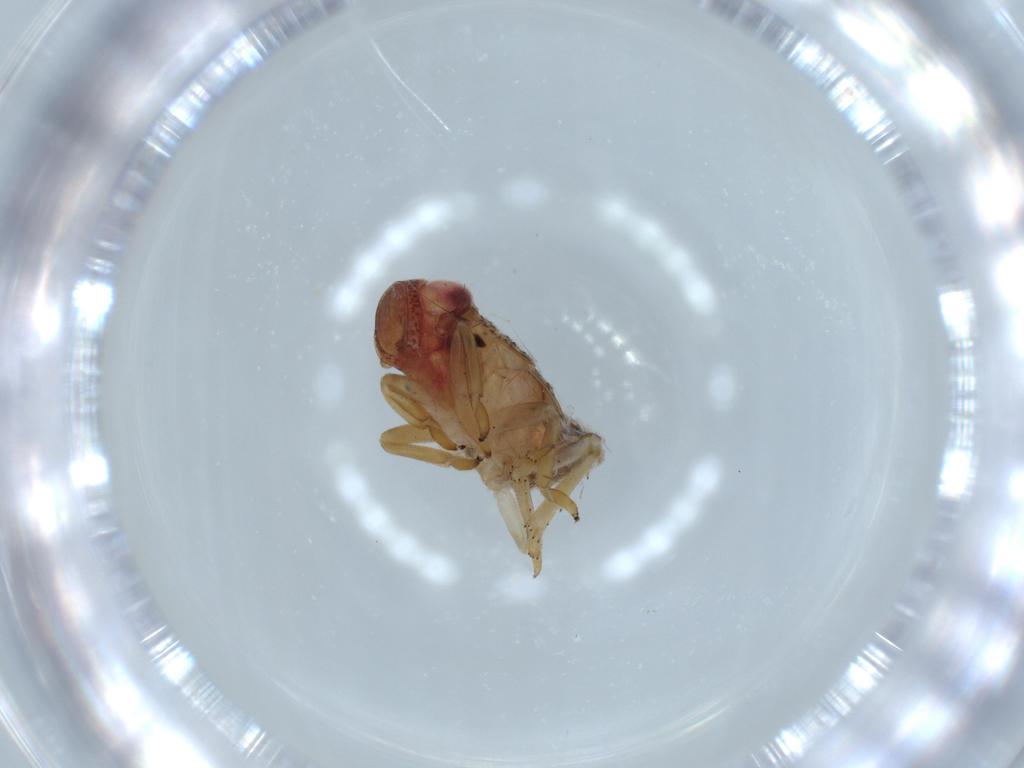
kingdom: Animalia
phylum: Arthropoda
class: Insecta
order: Hemiptera
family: Issidae
